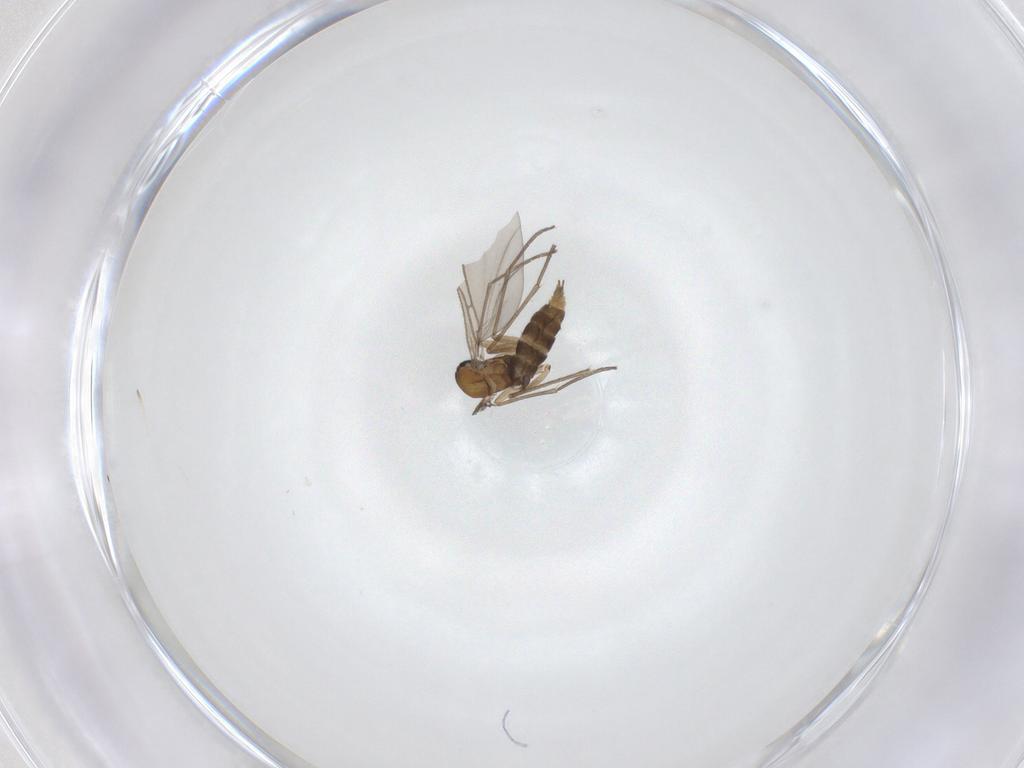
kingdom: Animalia
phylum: Arthropoda
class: Insecta
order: Diptera
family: Sciaridae
